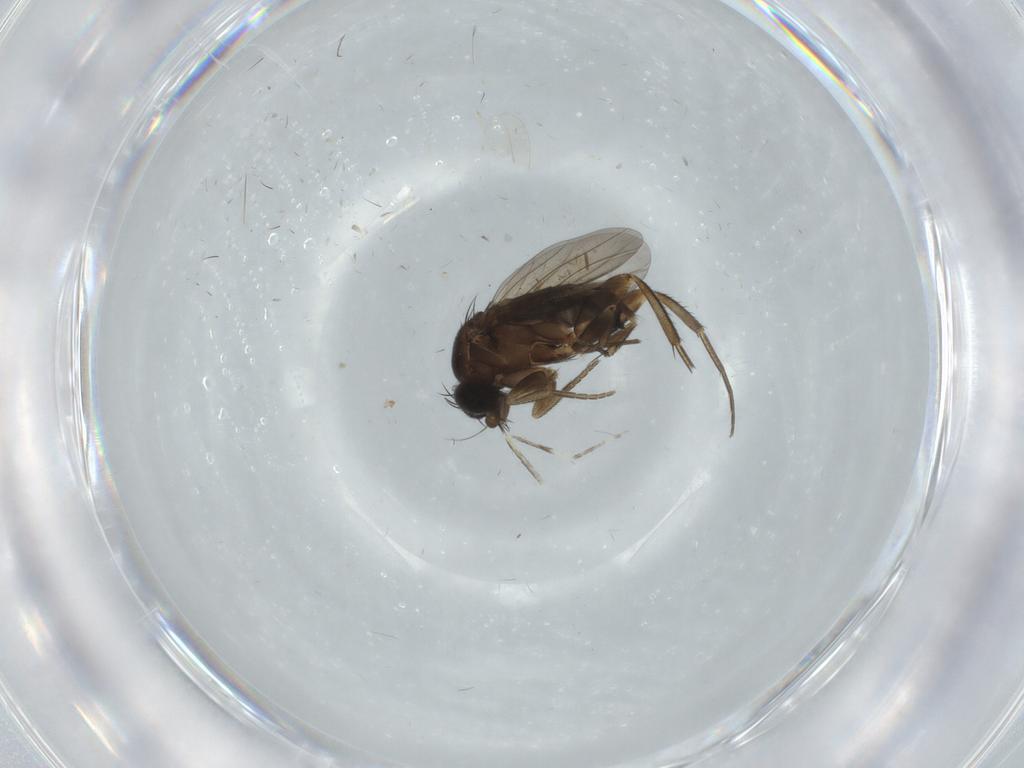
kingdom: Animalia
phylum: Arthropoda
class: Insecta
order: Diptera
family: Phoridae
